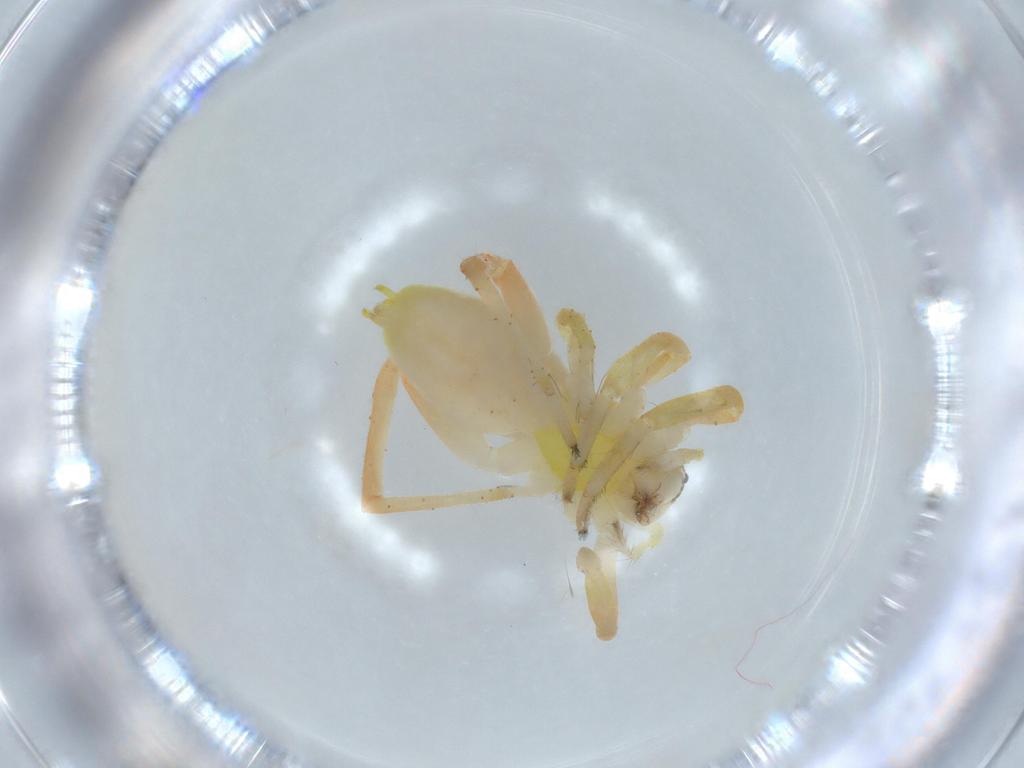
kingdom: Animalia
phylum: Arthropoda
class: Arachnida
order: Araneae
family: Anyphaenidae
